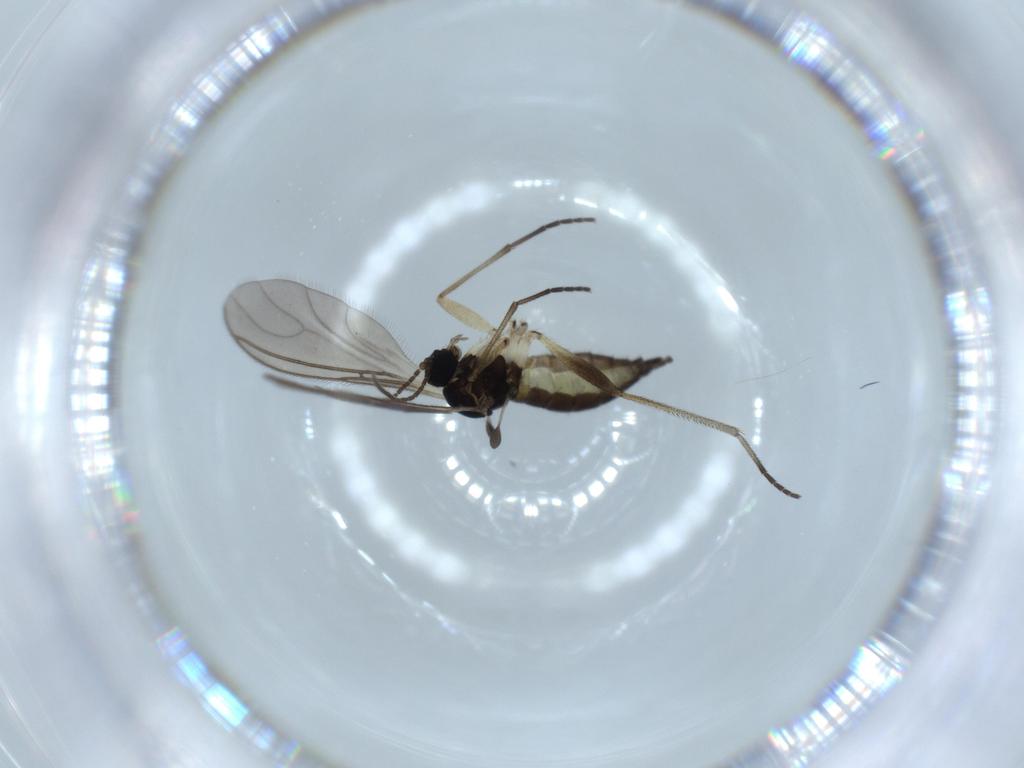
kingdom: Animalia
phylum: Arthropoda
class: Insecta
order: Diptera
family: Sciaridae
